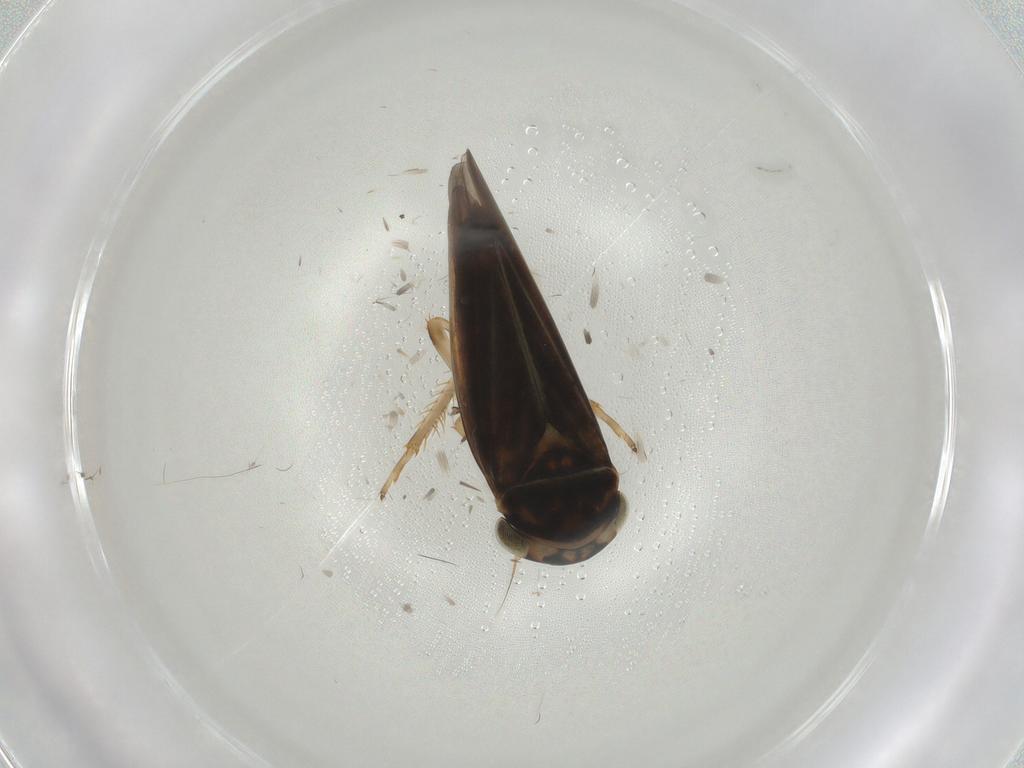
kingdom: Animalia
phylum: Arthropoda
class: Insecta
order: Hemiptera
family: Cicadellidae
